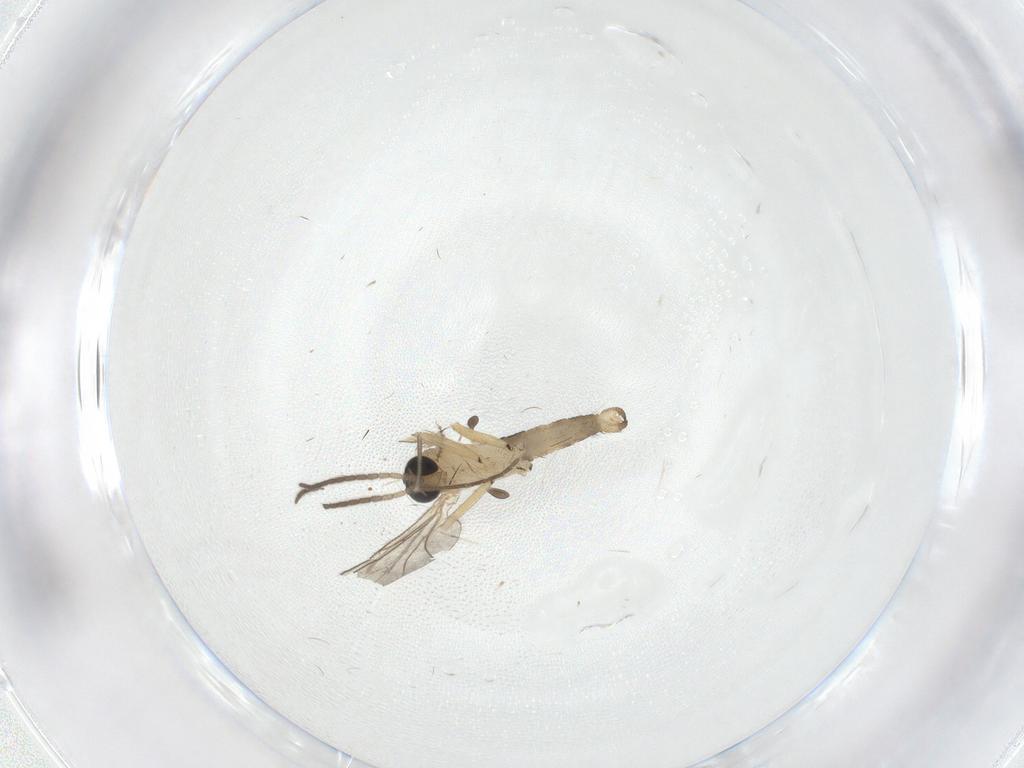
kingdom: Animalia
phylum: Arthropoda
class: Insecta
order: Diptera
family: Sciaridae
